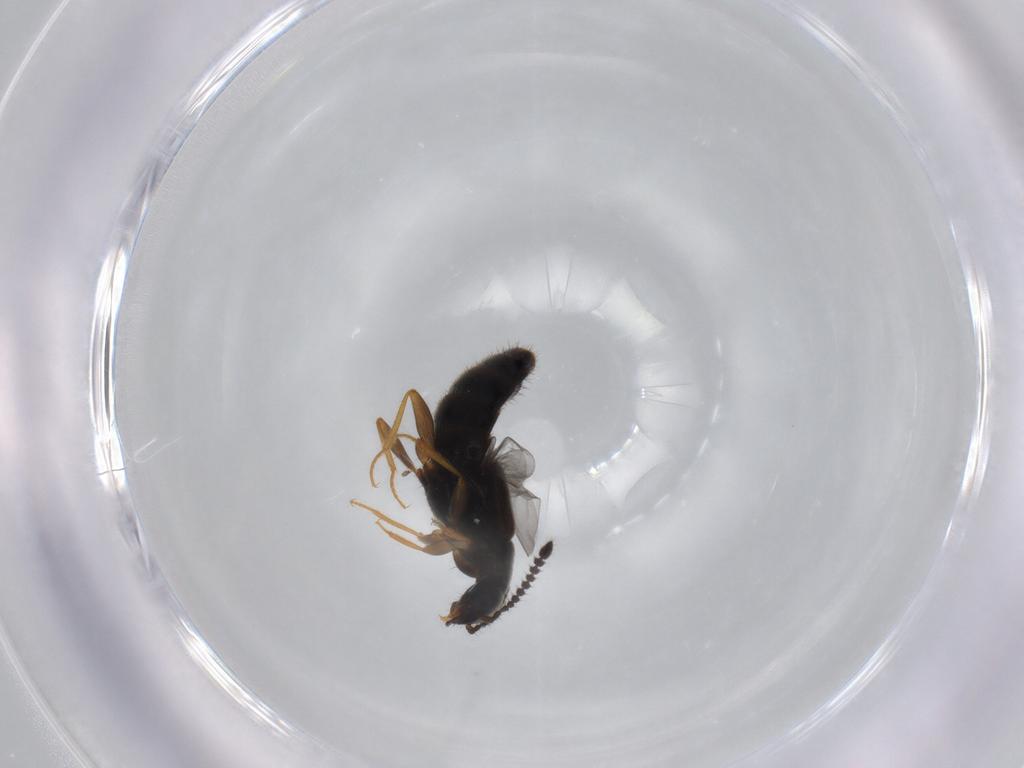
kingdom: Animalia
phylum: Arthropoda
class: Insecta
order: Coleoptera
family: Staphylinidae
